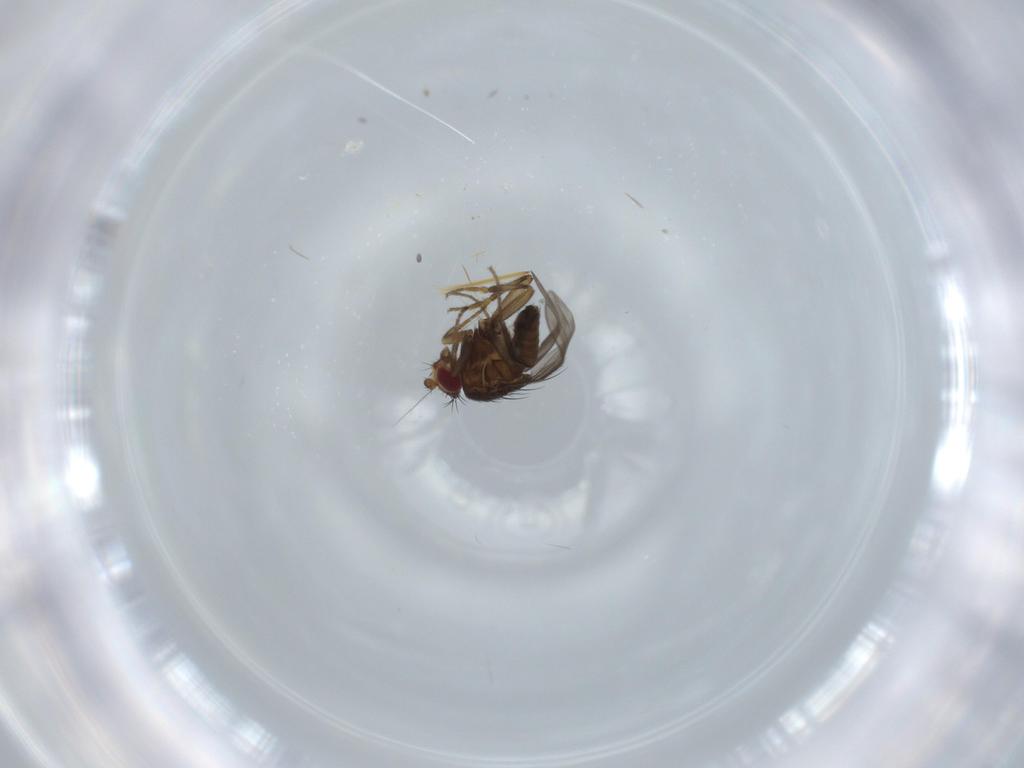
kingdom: Animalia
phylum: Arthropoda
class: Insecta
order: Diptera
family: Sphaeroceridae
